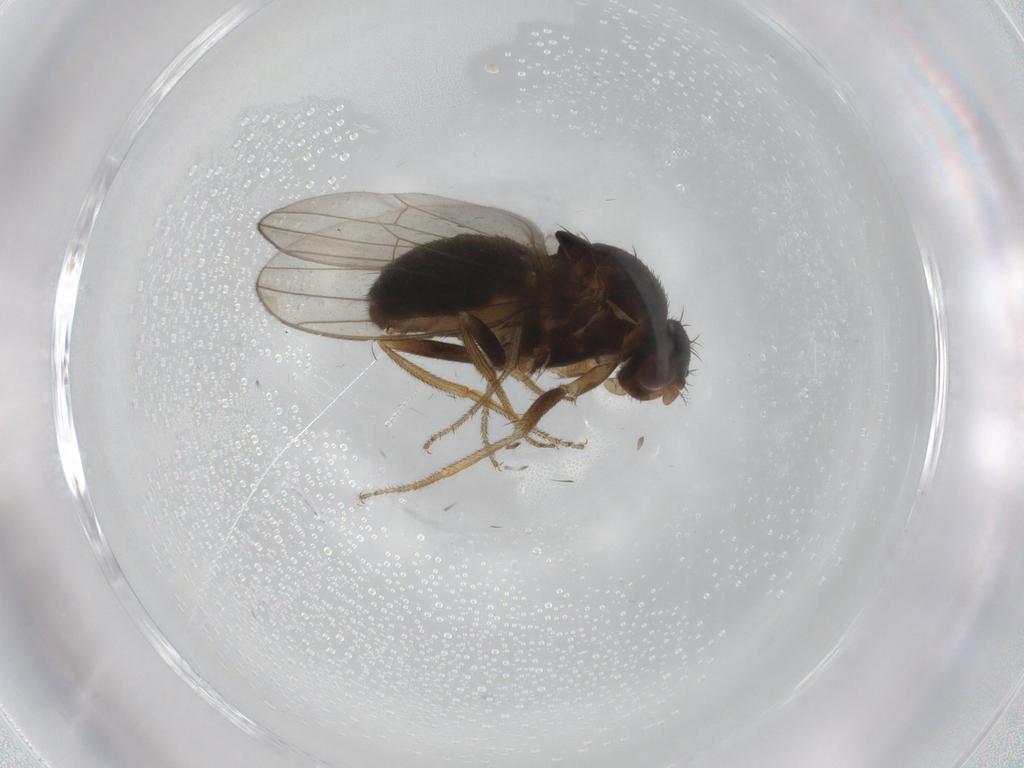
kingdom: Animalia
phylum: Arthropoda
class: Insecta
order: Diptera
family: Drosophilidae
